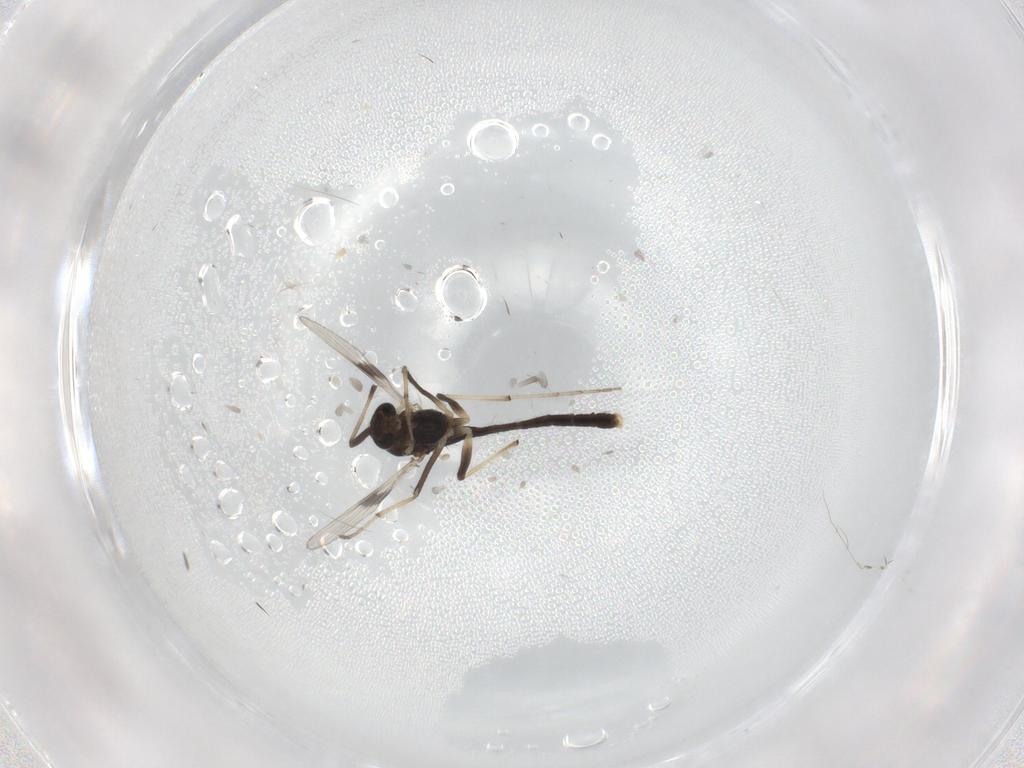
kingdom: Animalia
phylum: Arthropoda
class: Insecta
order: Diptera
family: Chironomidae
